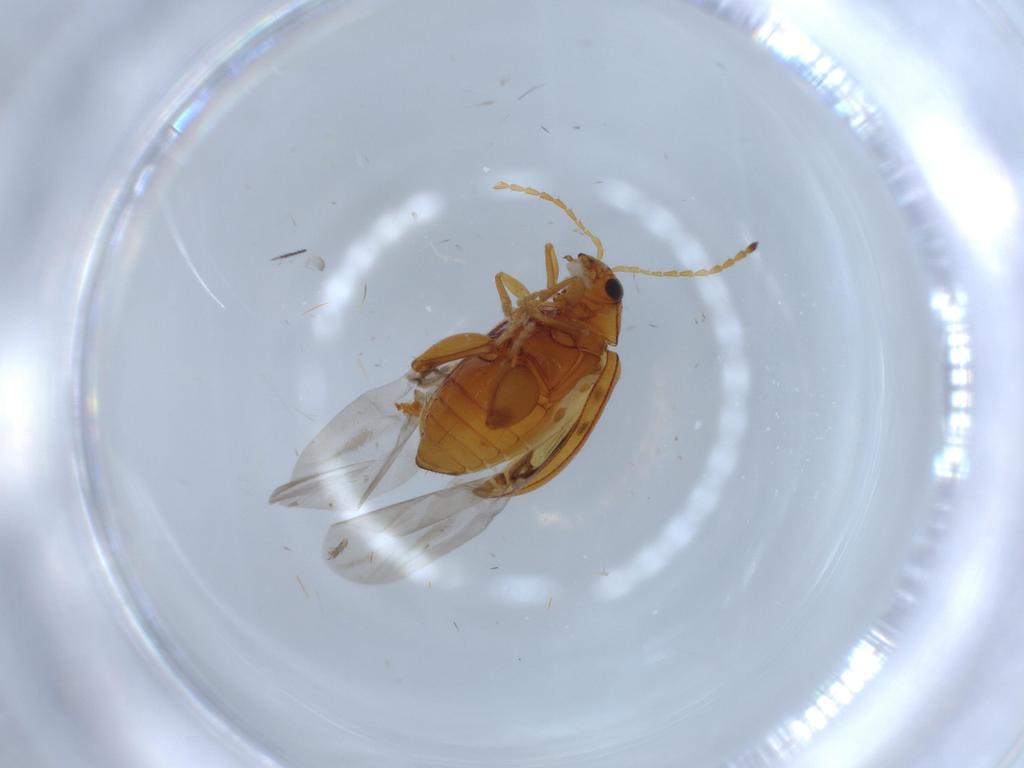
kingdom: Animalia
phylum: Arthropoda
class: Insecta
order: Coleoptera
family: Chrysomelidae
